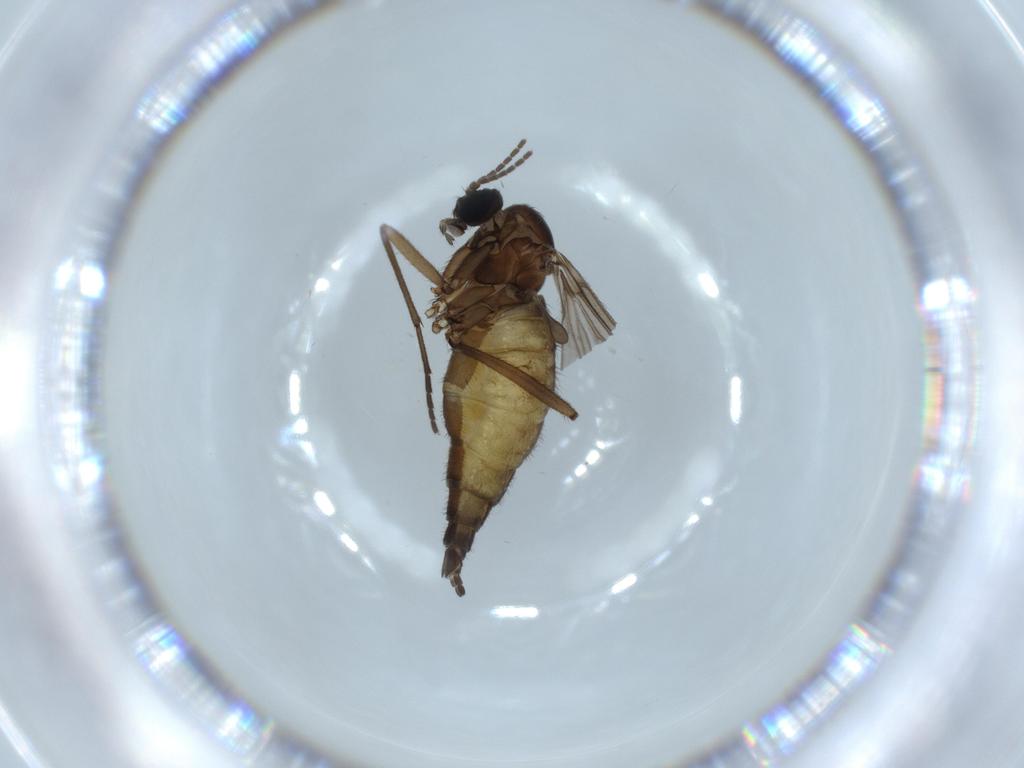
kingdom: Animalia
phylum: Arthropoda
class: Insecta
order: Diptera
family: Sciaridae
